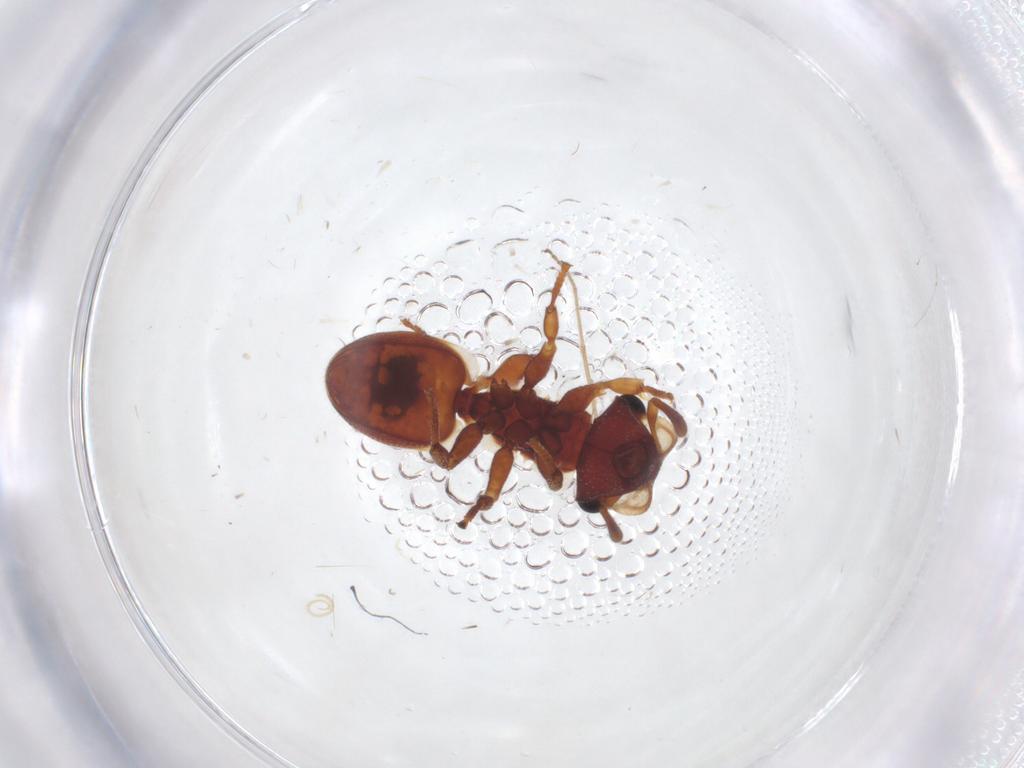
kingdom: Animalia
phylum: Arthropoda
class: Insecta
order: Hymenoptera
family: Formicidae
